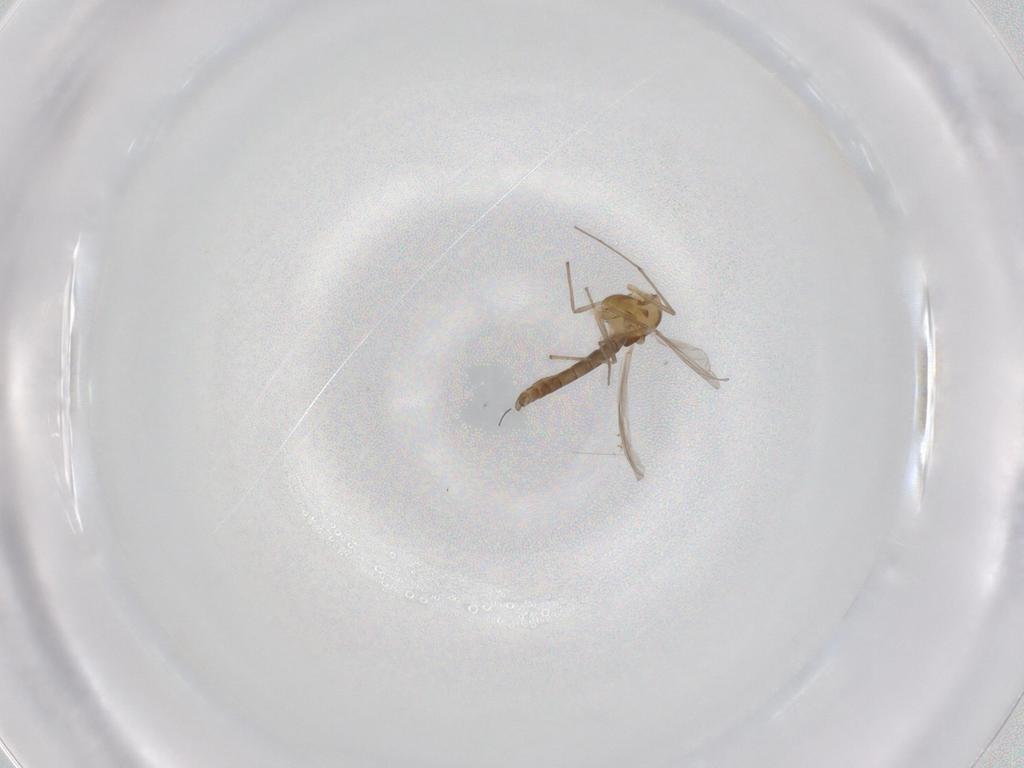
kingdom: Animalia
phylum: Arthropoda
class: Insecta
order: Diptera
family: Chironomidae
